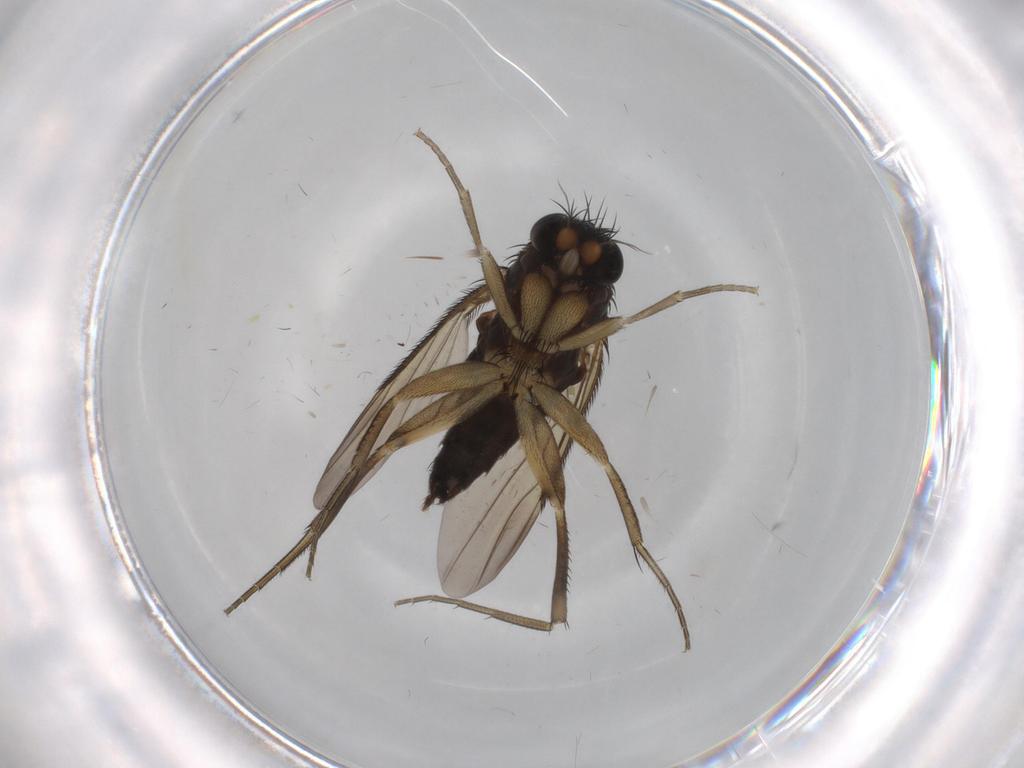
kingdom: Animalia
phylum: Arthropoda
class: Insecta
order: Diptera
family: Phoridae
